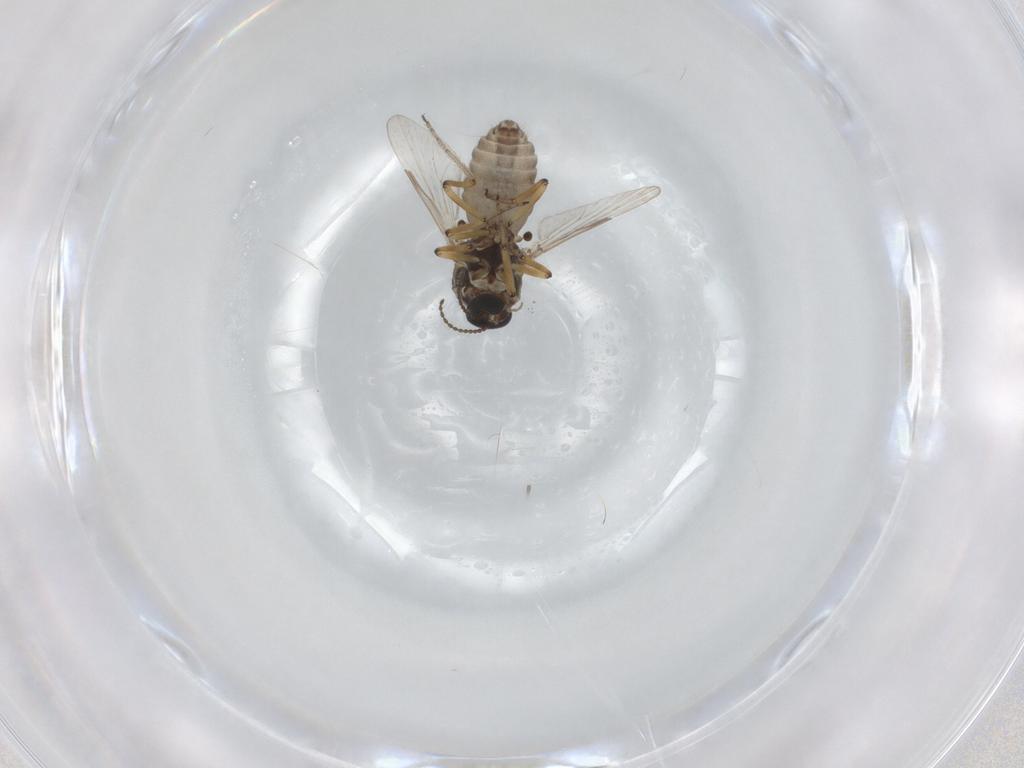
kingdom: Animalia
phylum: Arthropoda
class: Insecta
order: Diptera
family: Ceratopogonidae
